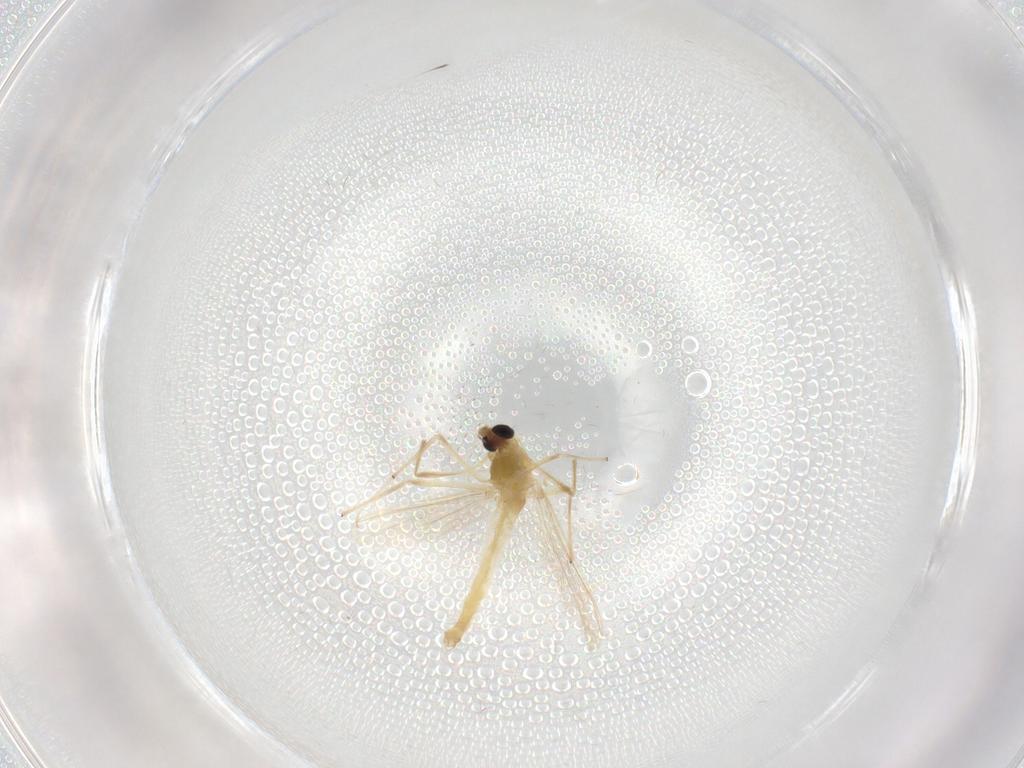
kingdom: Animalia
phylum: Arthropoda
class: Insecta
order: Diptera
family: Chironomidae
